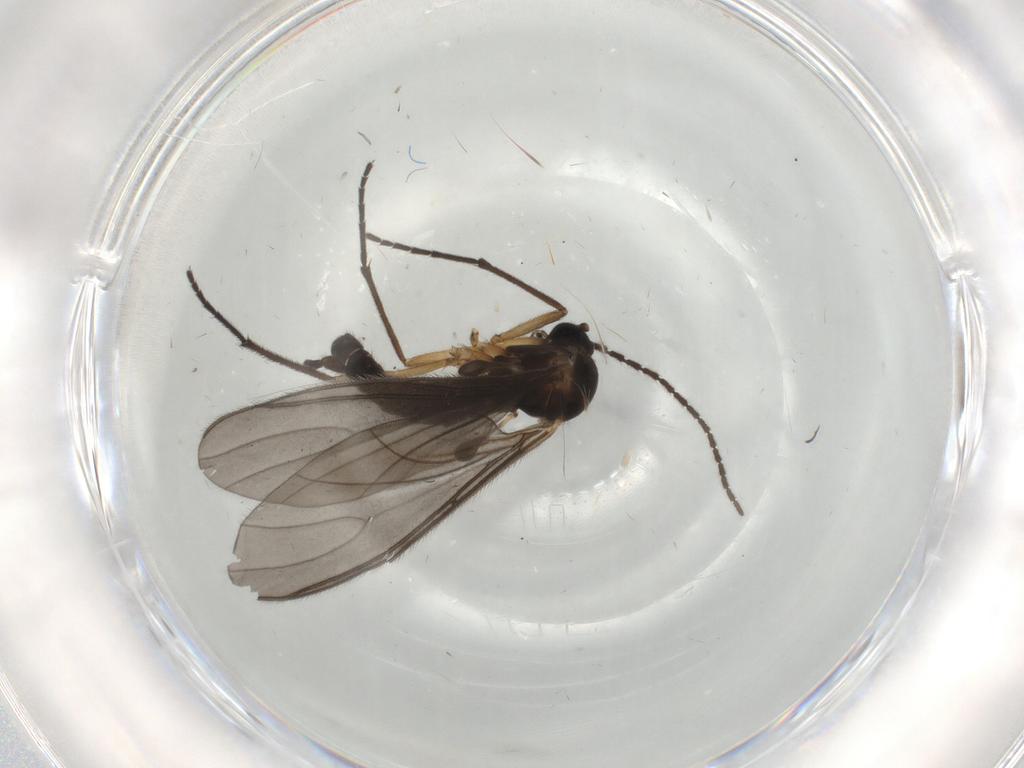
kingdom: Animalia
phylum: Arthropoda
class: Insecta
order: Diptera
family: Sciaridae
